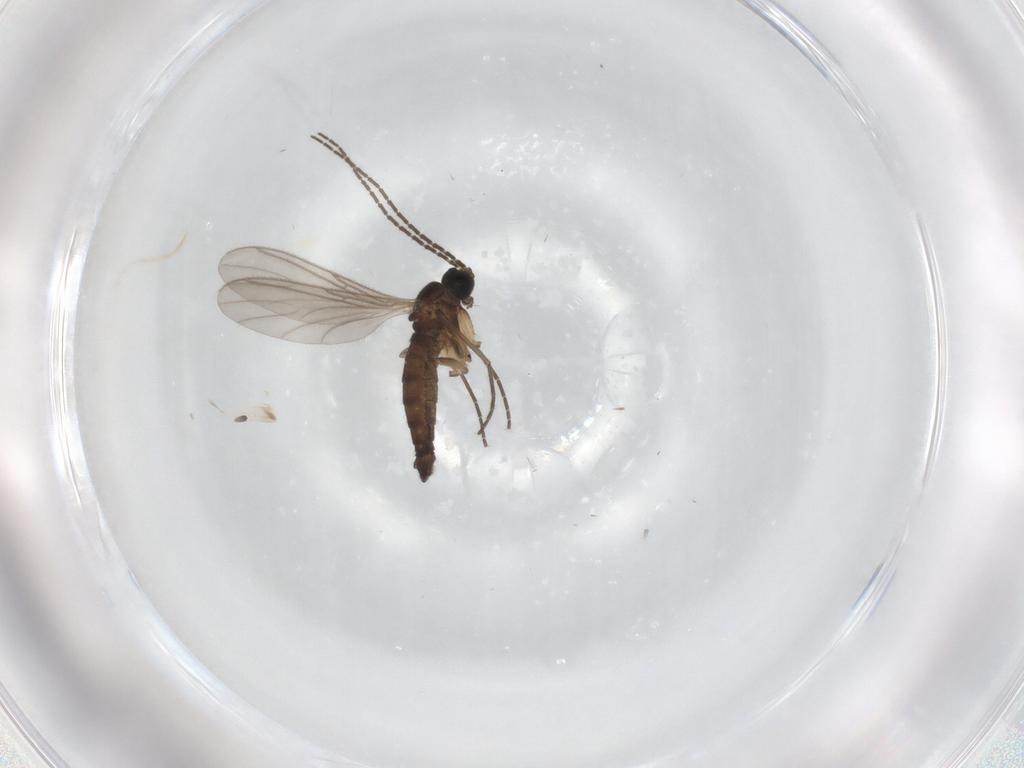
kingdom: Animalia
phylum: Arthropoda
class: Insecta
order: Diptera
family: Sciaridae
